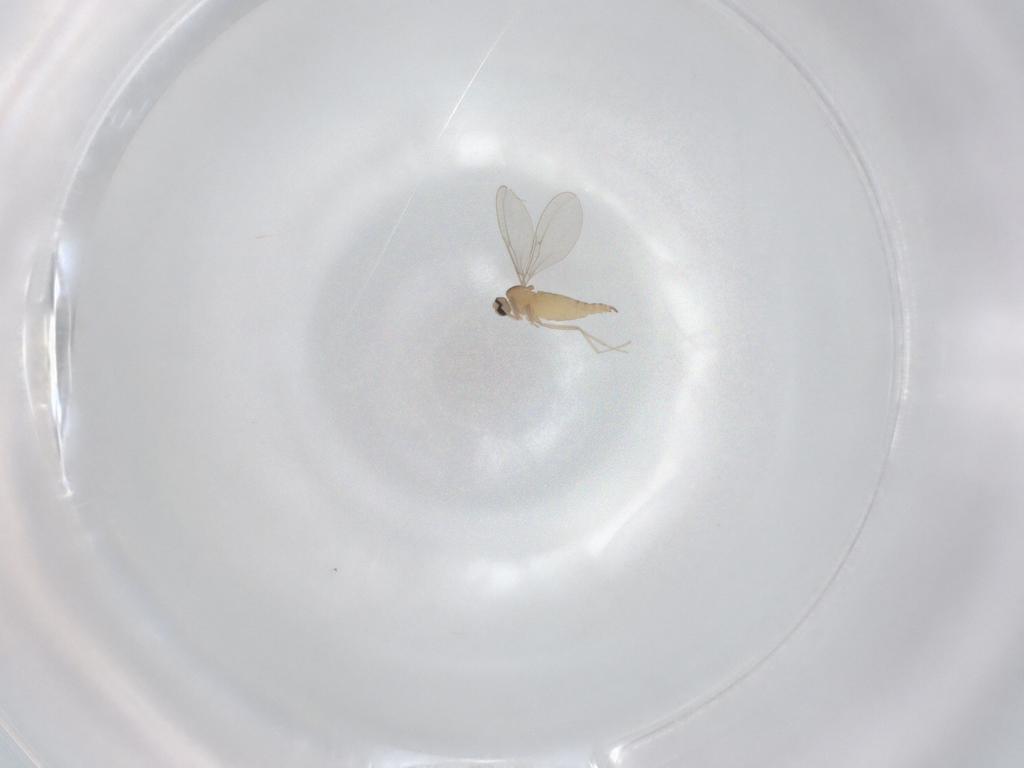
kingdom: Animalia
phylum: Arthropoda
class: Insecta
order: Diptera
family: Cecidomyiidae
